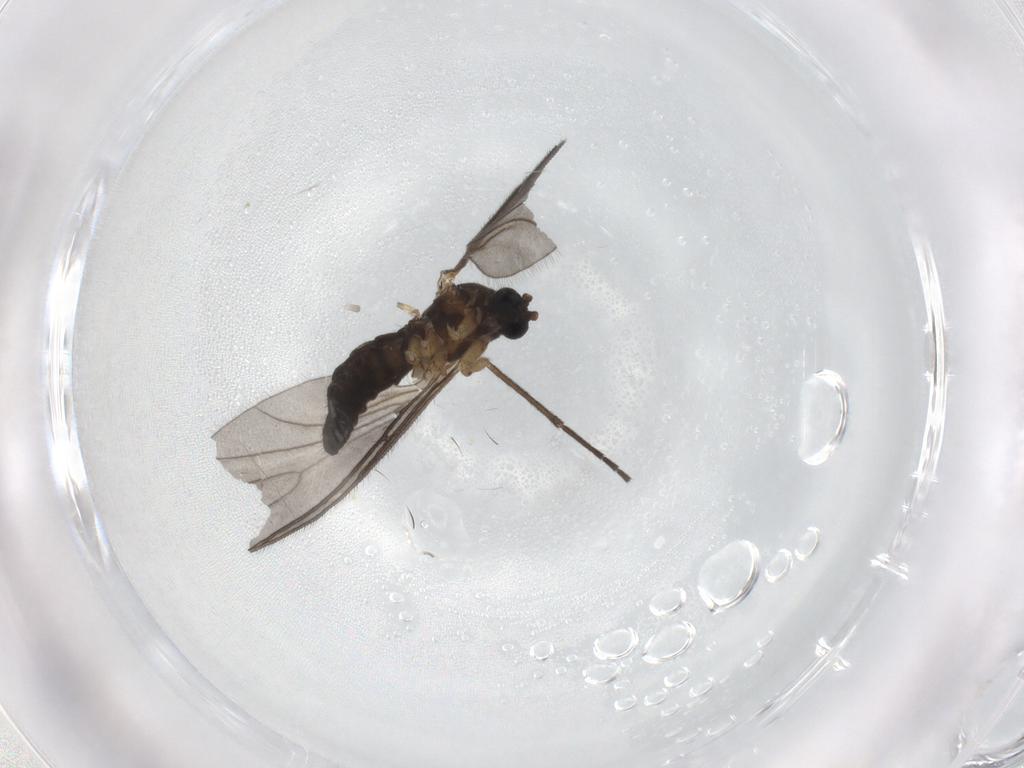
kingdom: Animalia
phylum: Arthropoda
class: Insecta
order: Diptera
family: Sciaridae
